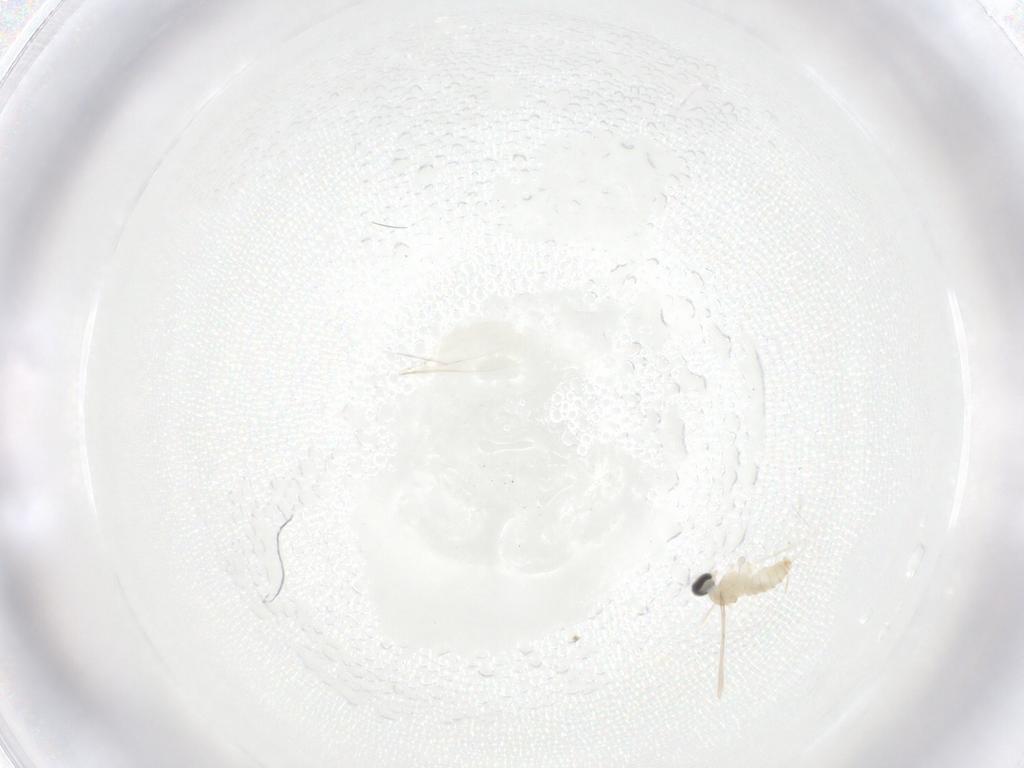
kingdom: Animalia
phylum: Arthropoda
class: Insecta
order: Diptera
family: Cecidomyiidae
